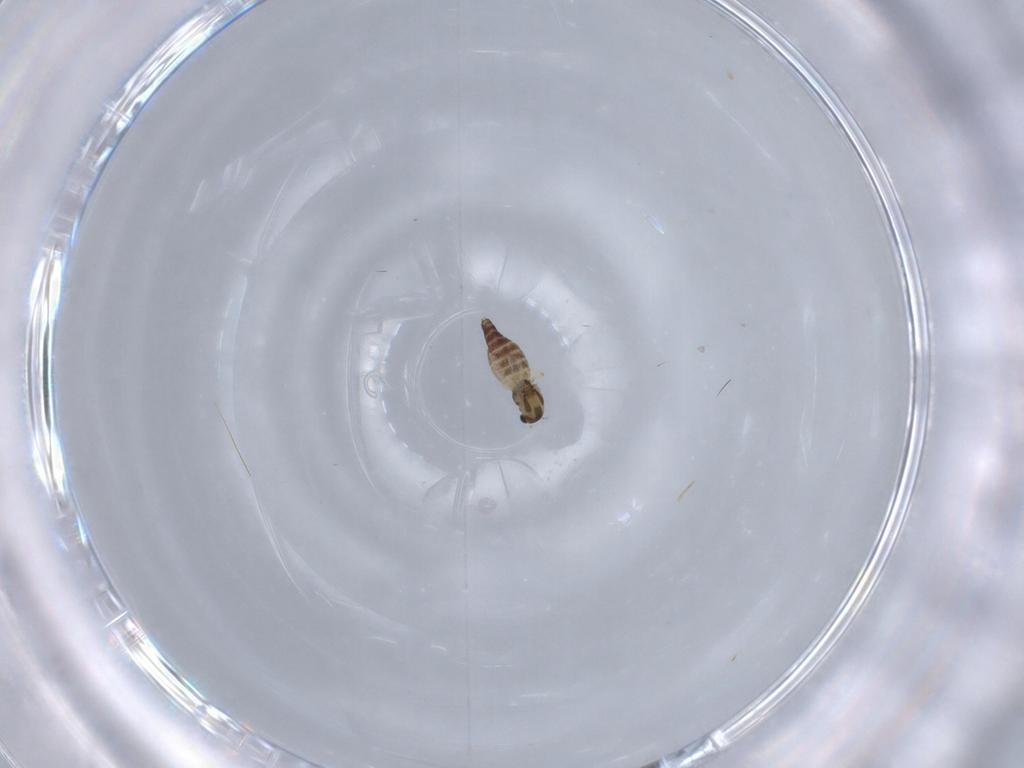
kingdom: Animalia
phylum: Arthropoda
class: Insecta
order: Diptera
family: Chironomidae
